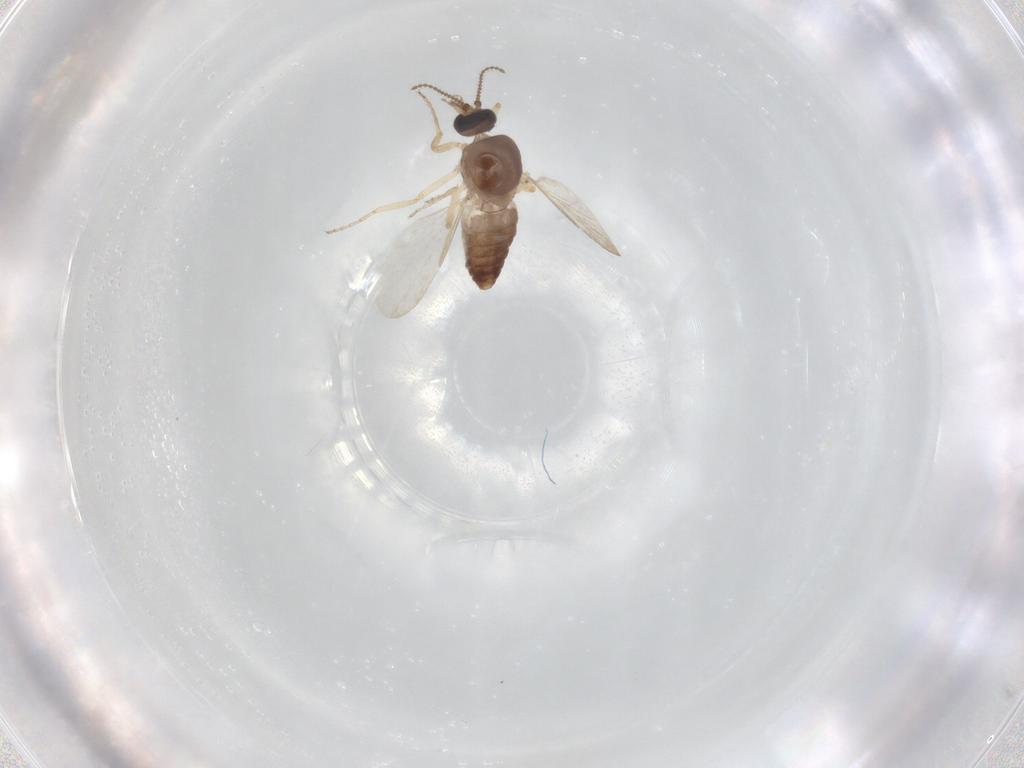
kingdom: Animalia
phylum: Arthropoda
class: Insecta
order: Diptera
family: Ceratopogonidae
